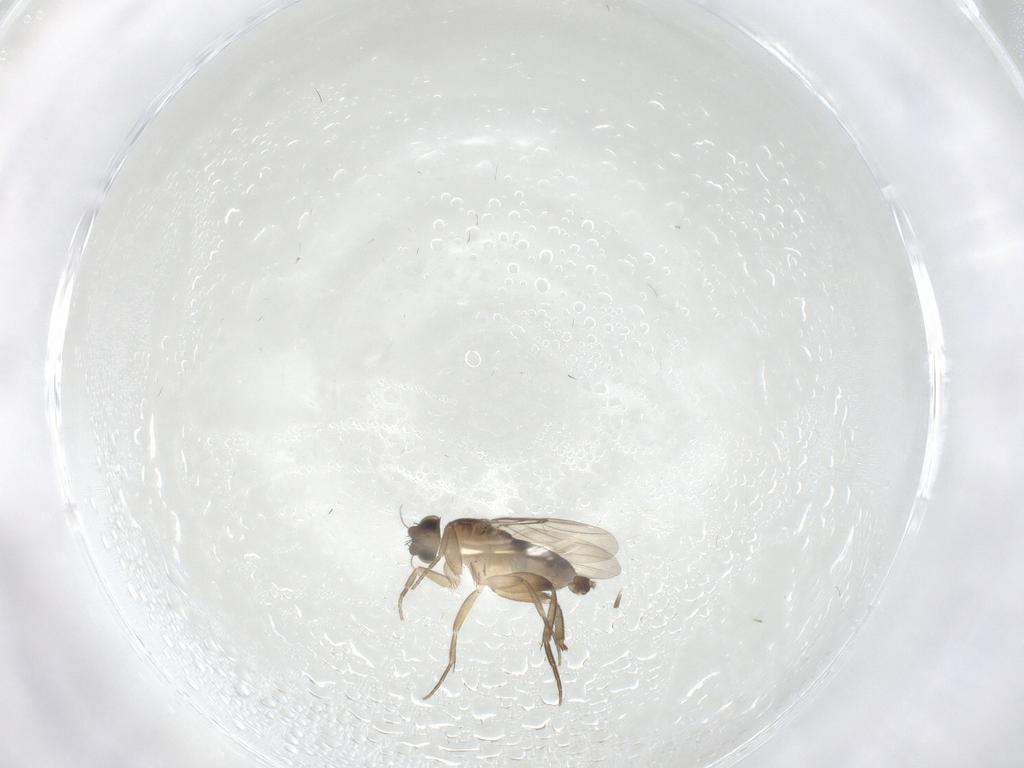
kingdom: Animalia
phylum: Arthropoda
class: Insecta
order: Diptera
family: Phoridae
